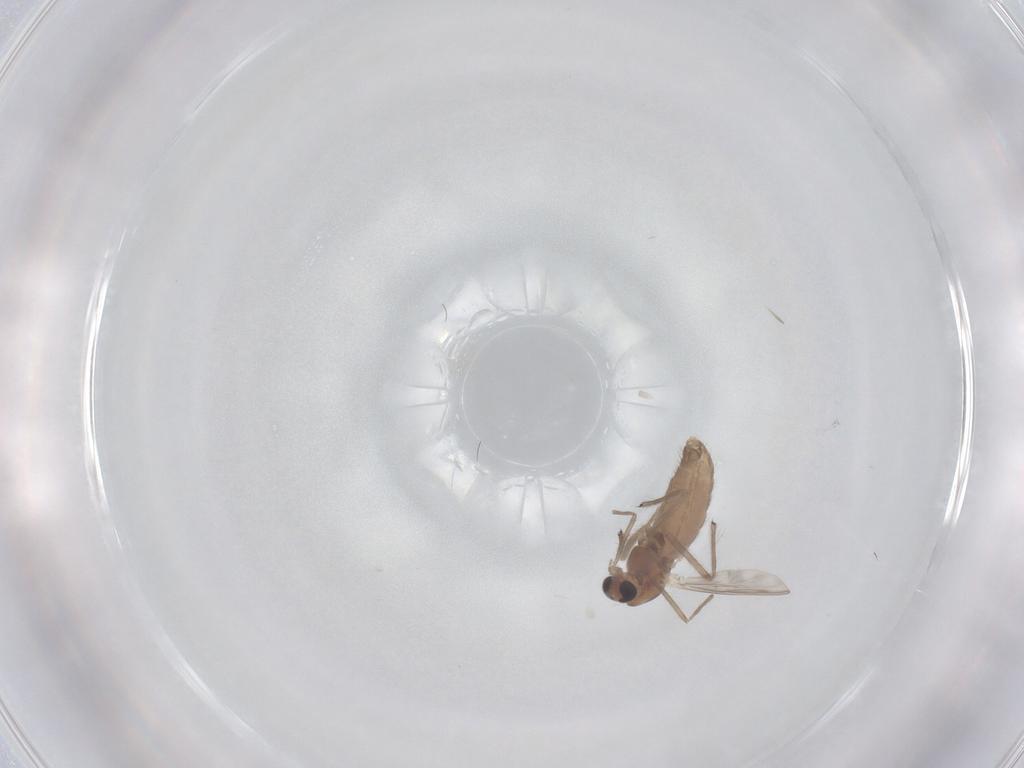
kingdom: Animalia
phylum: Arthropoda
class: Insecta
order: Diptera
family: Chironomidae
